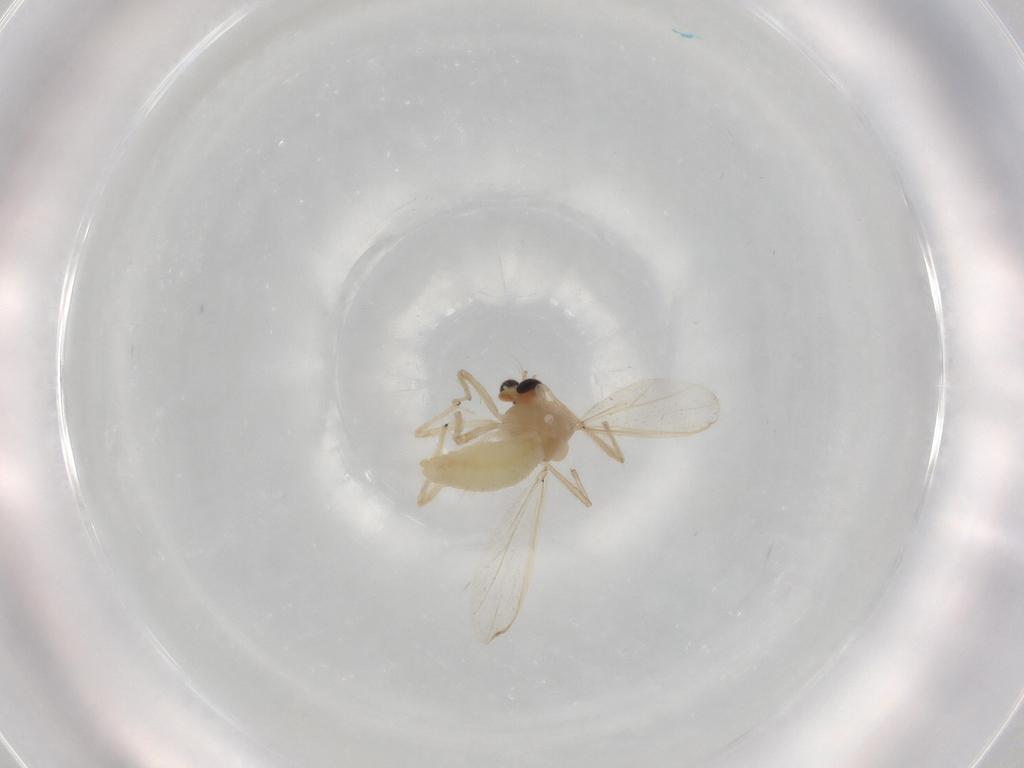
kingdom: Animalia
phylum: Arthropoda
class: Insecta
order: Diptera
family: Mycetophilidae
